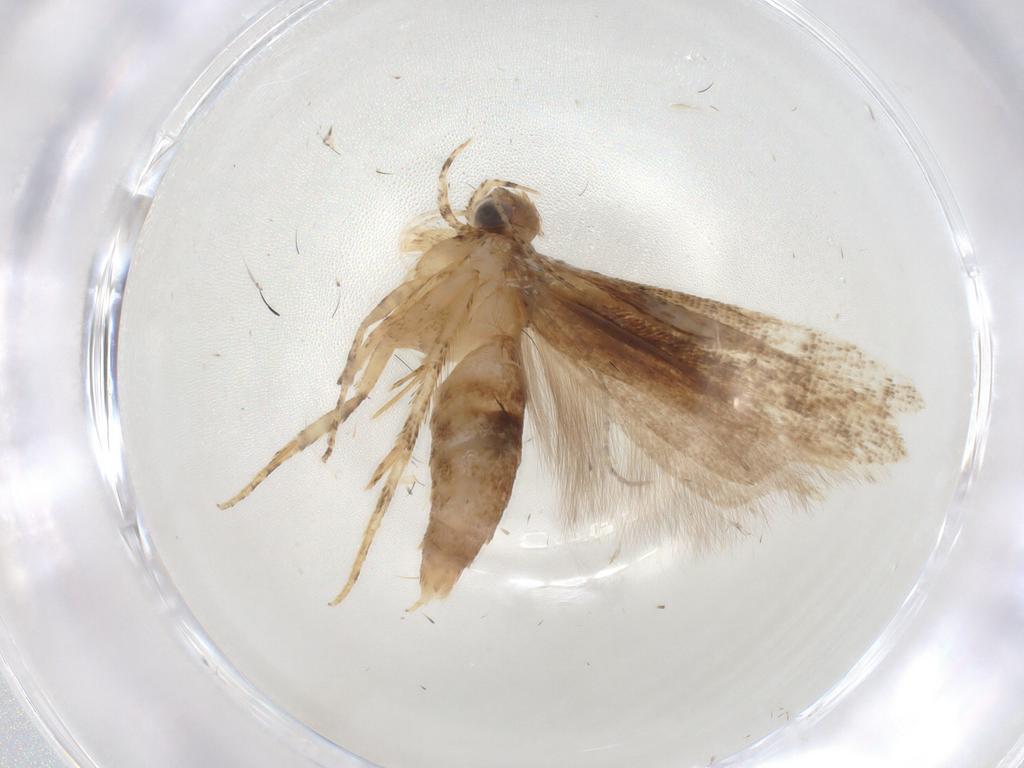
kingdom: Animalia
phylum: Arthropoda
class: Insecta
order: Lepidoptera
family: Gelechiidae
